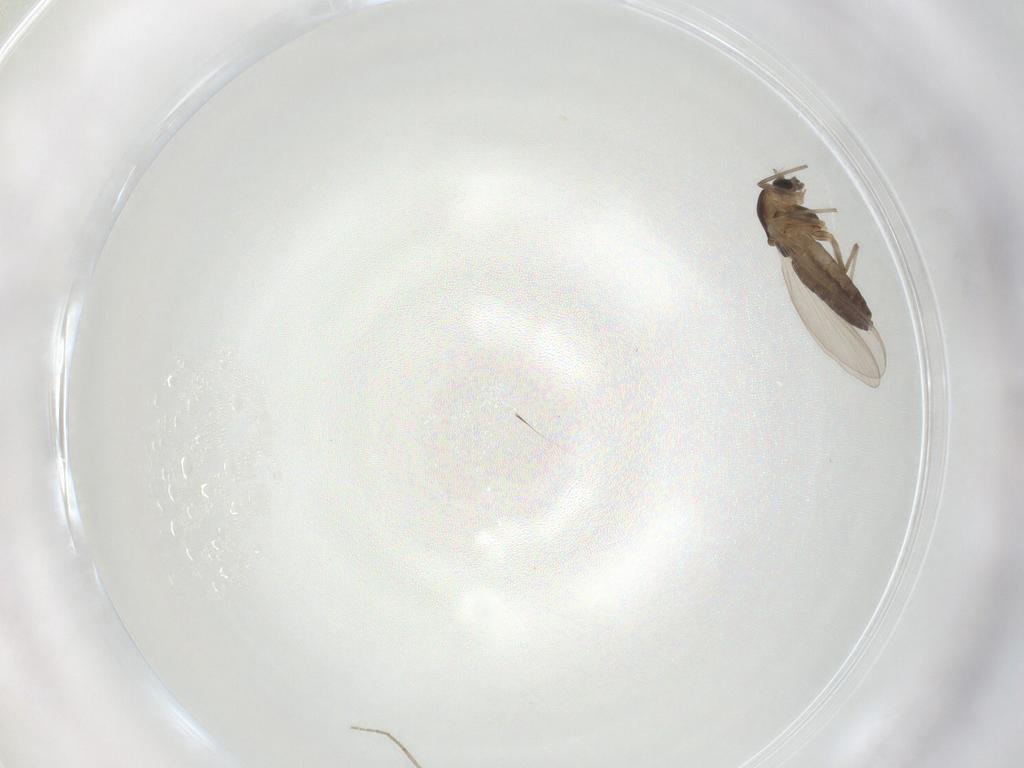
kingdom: Animalia
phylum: Arthropoda
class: Insecta
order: Diptera
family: Chironomidae
